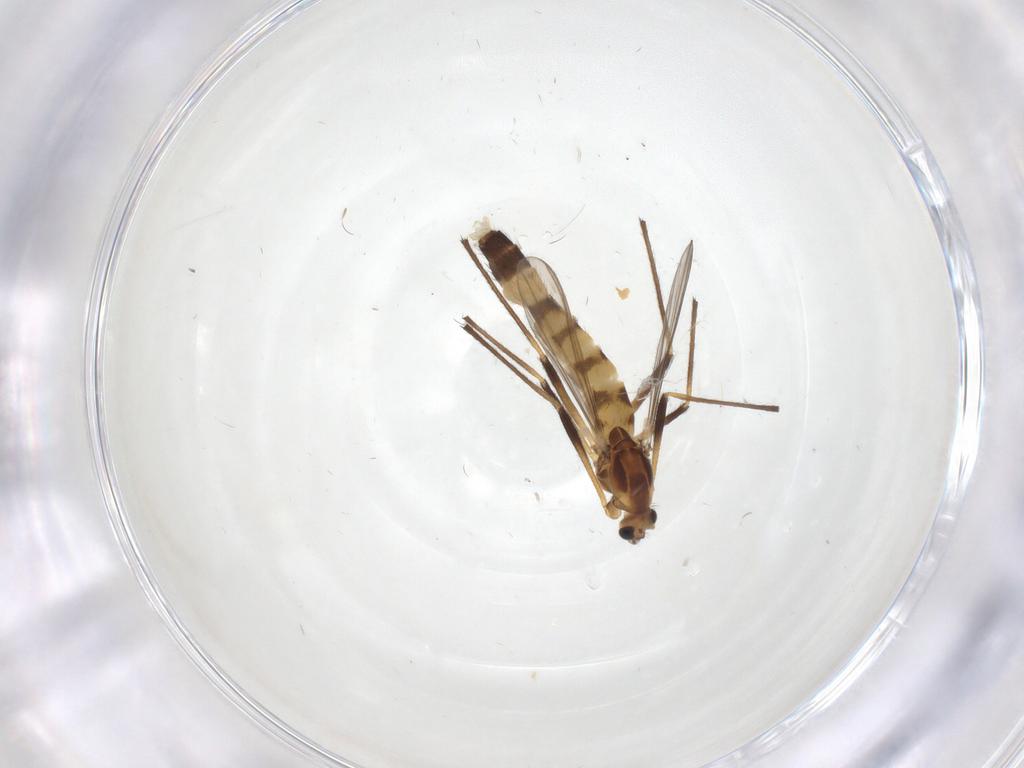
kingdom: Animalia
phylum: Arthropoda
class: Insecta
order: Diptera
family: Chironomidae
